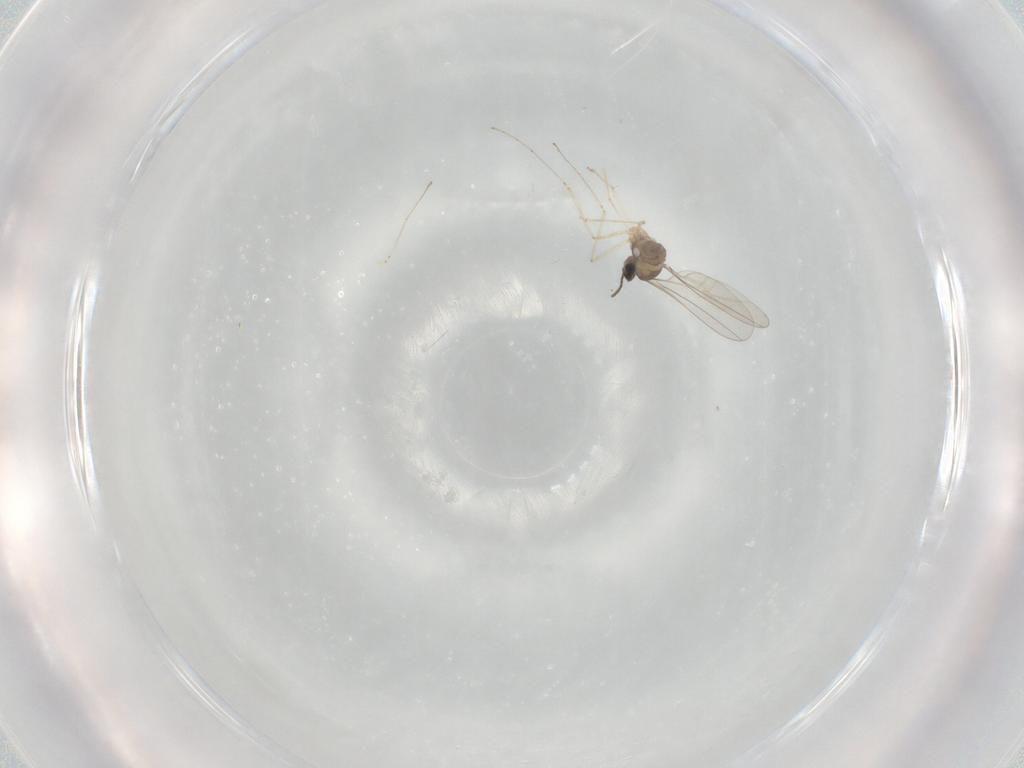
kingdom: Animalia
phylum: Arthropoda
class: Insecta
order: Diptera
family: Cecidomyiidae
